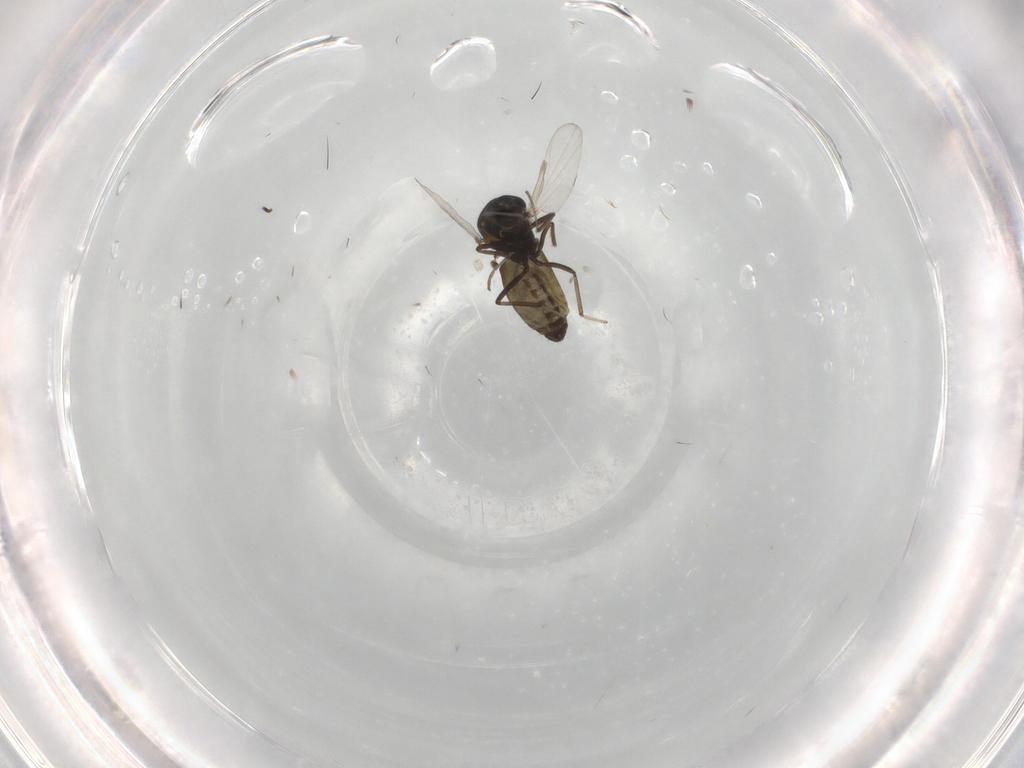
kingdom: Animalia
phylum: Arthropoda
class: Insecta
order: Diptera
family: Ceratopogonidae
